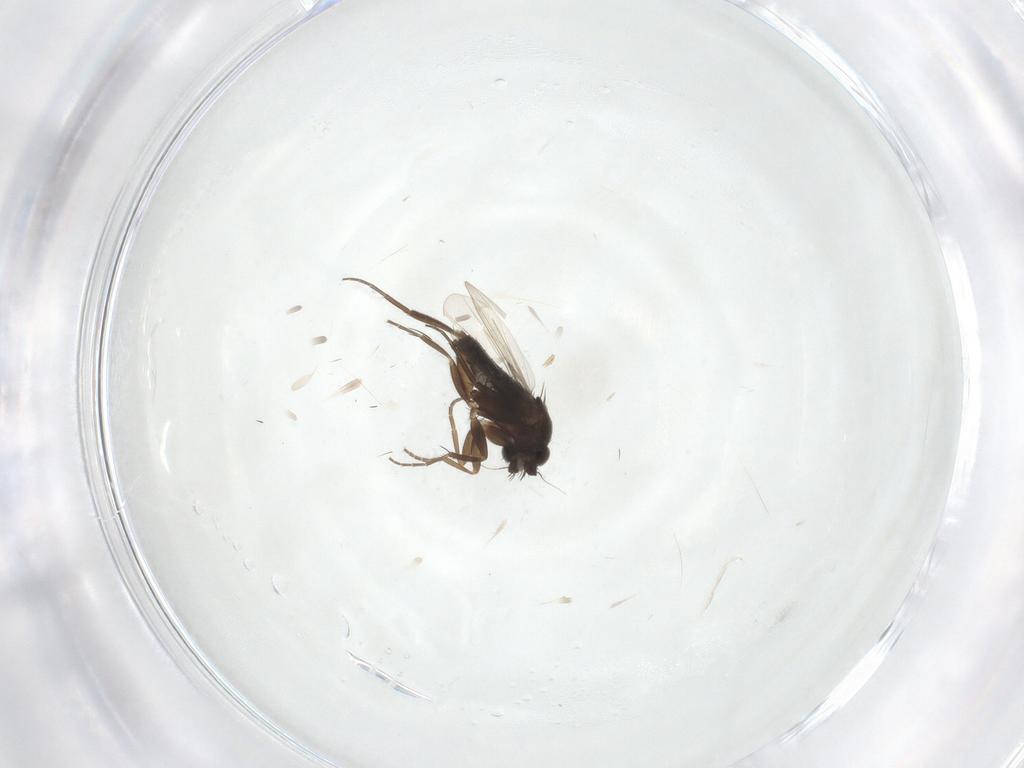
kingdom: Animalia
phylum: Arthropoda
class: Insecta
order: Diptera
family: Phoridae
